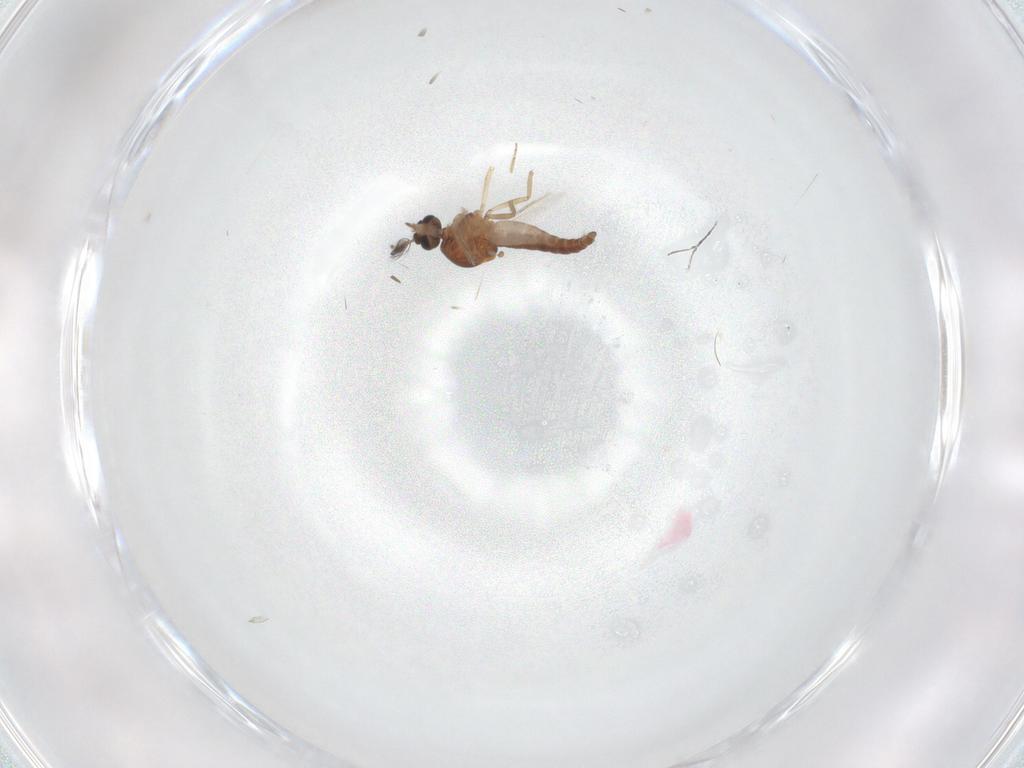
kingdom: Animalia
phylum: Arthropoda
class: Insecta
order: Diptera
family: Ceratopogonidae
